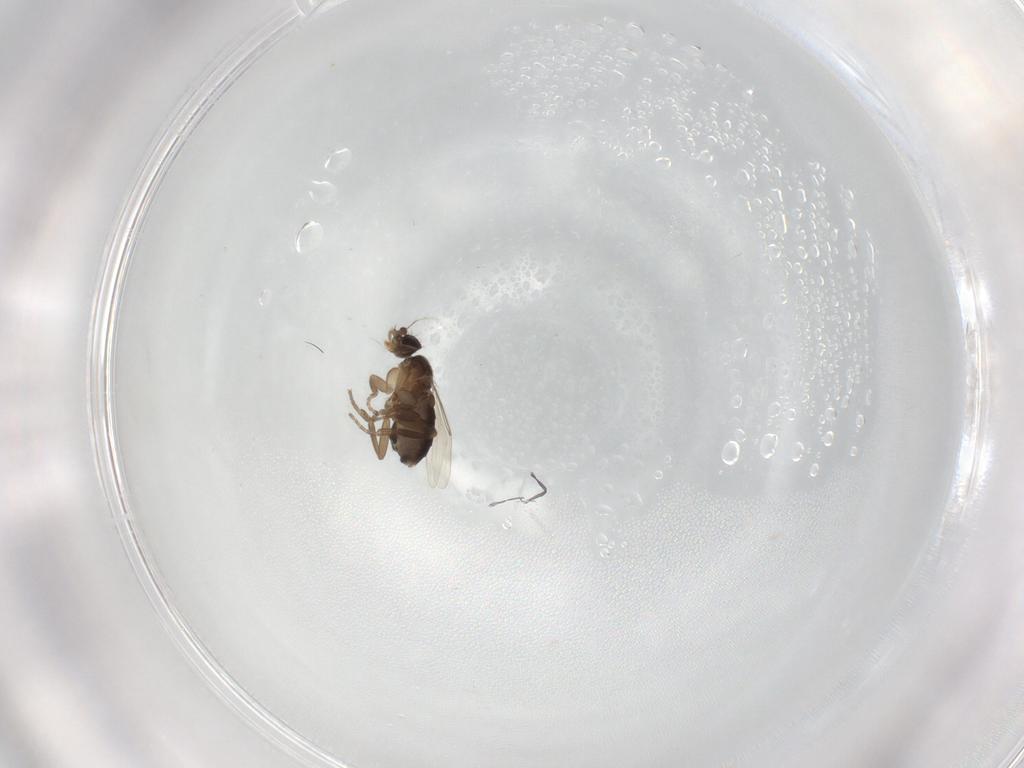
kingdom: Animalia
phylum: Arthropoda
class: Insecta
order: Diptera
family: Phoridae
